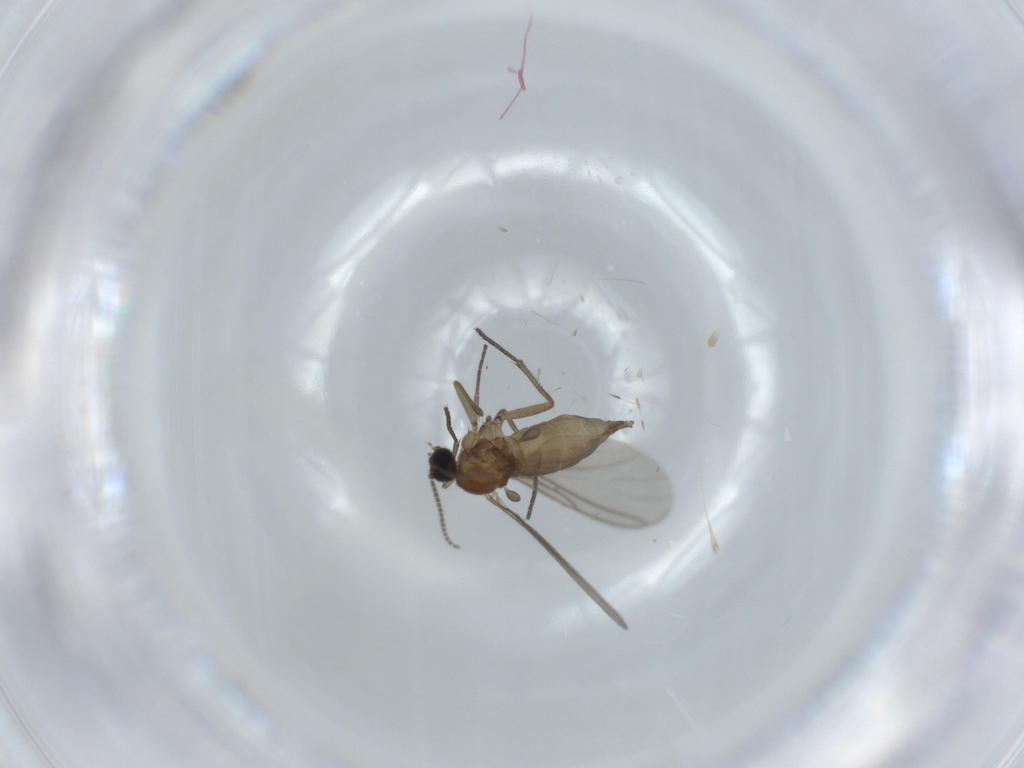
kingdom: Animalia
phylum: Arthropoda
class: Insecta
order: Diptera
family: Sciaridae
